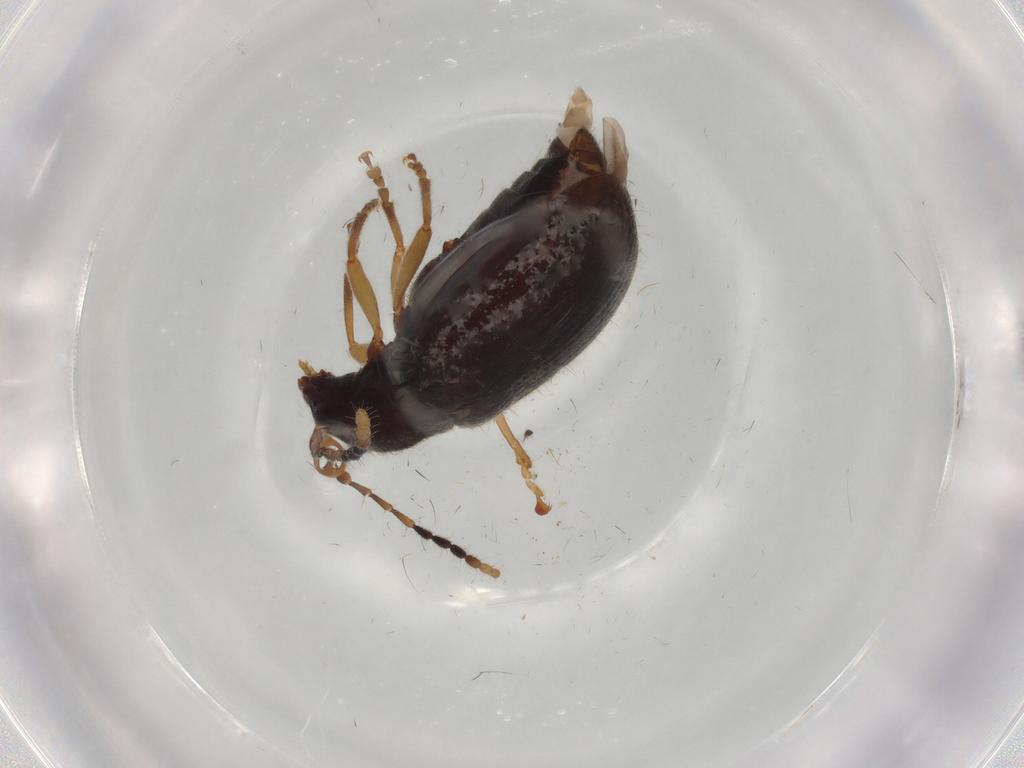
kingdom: Animalia
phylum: Arthropoda
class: Insecta
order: Coleoptera
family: Chrysomelidae
